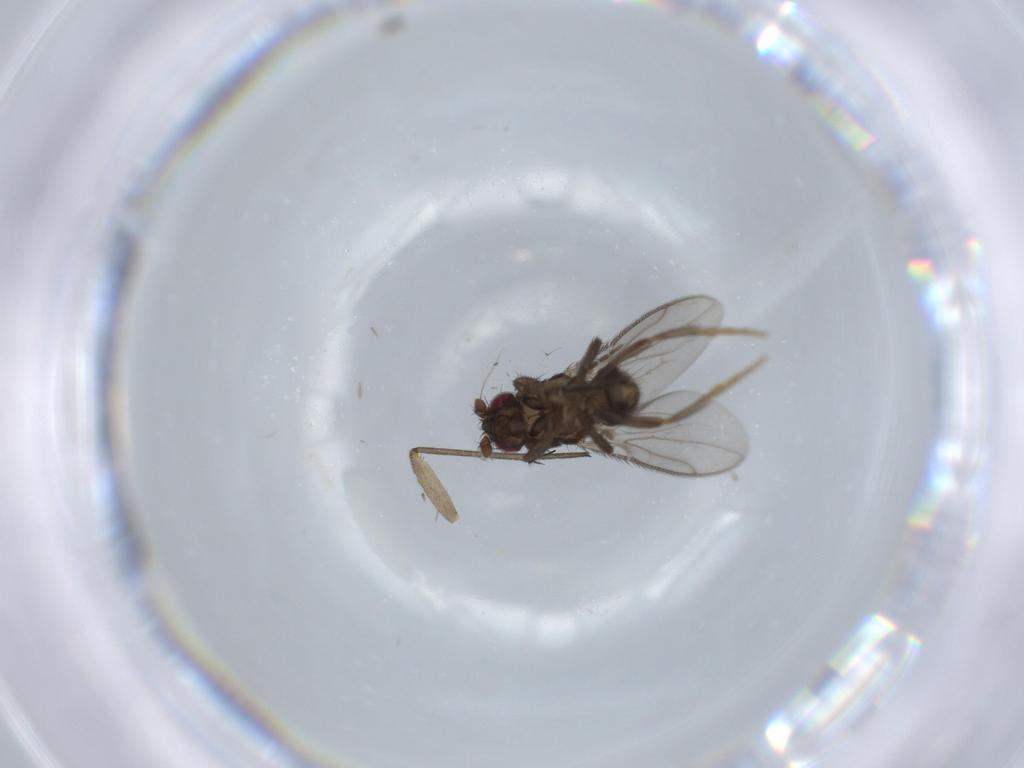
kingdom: Animalia
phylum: Arthropoda
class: Insecta
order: Diptera
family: Sphaeroceridae
